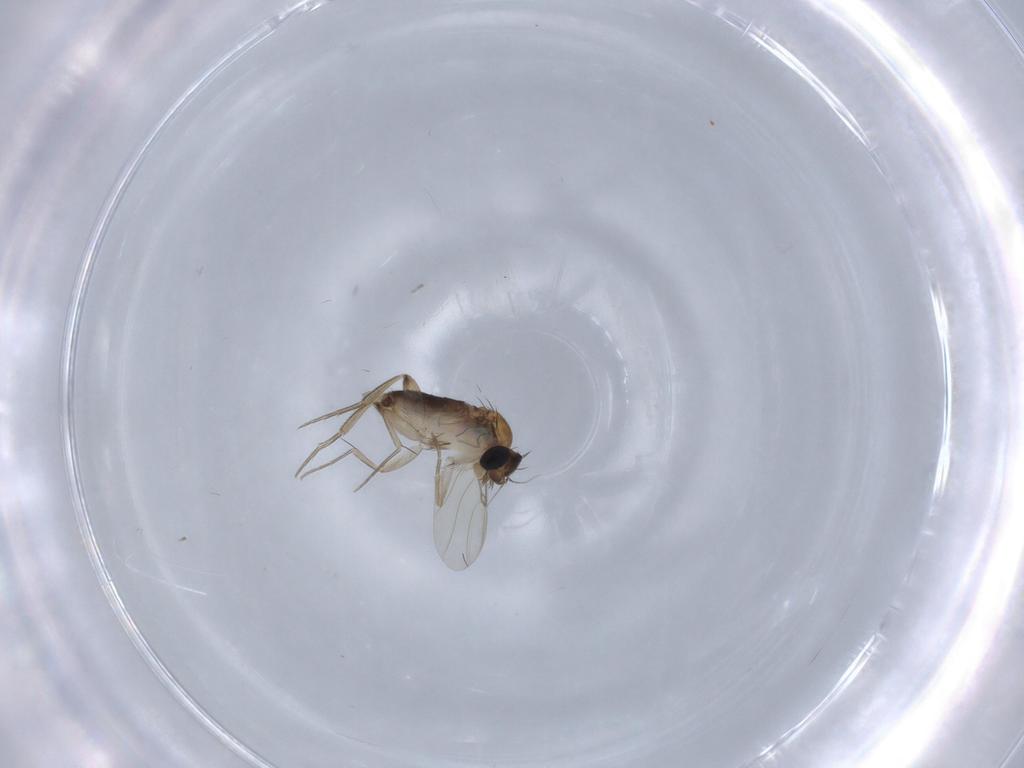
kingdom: Animalia
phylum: Arthropoda
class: Insecta
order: Diptera
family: Phoridae
